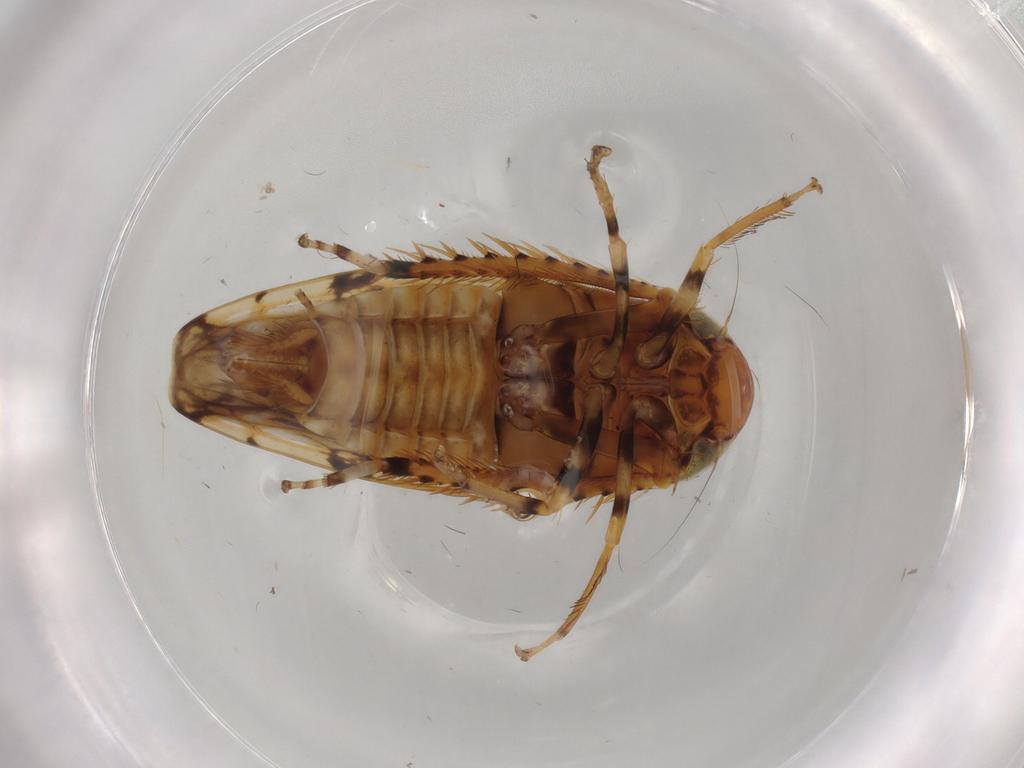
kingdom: Animalia
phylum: Arthropoda
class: Insecta
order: Hemiptera
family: Cicadellidae
